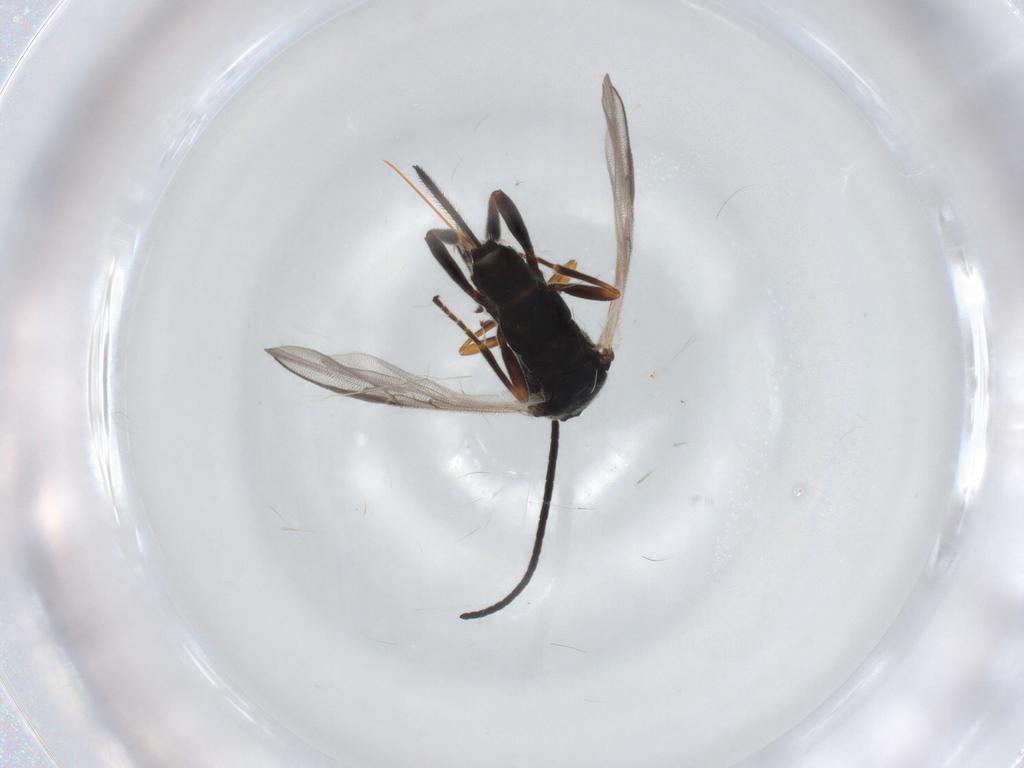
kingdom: Animalia
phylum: Arthropoda
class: Insecta
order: Hymenoptera
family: Braconidae
